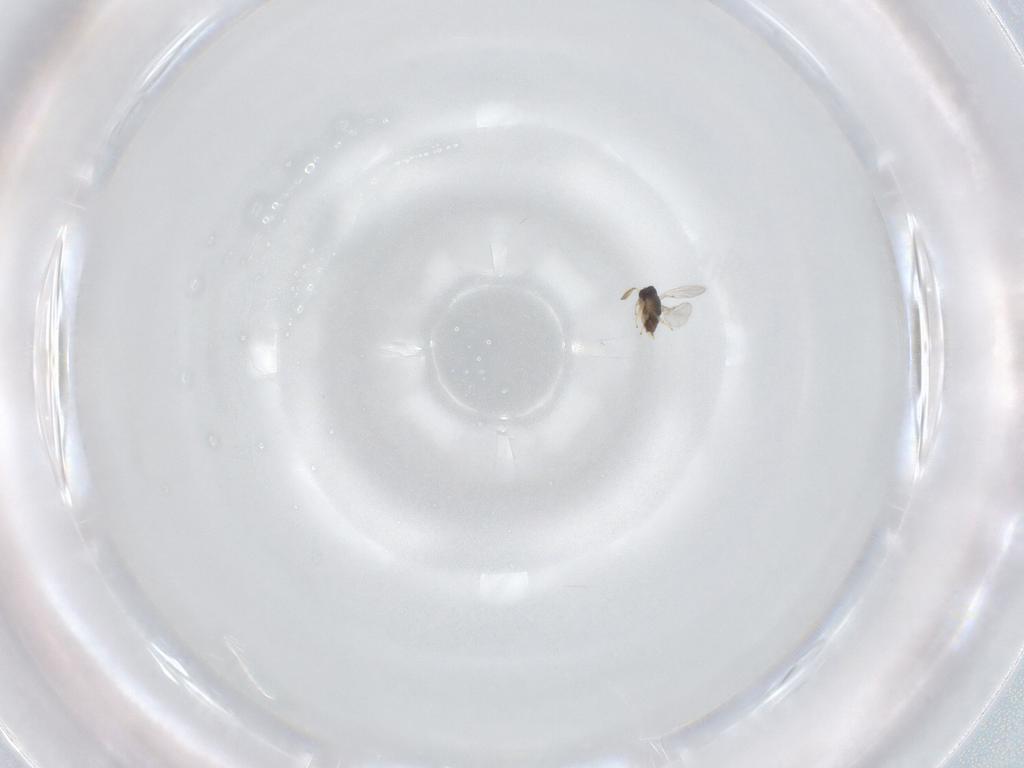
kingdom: Animalia
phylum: Arthropoda
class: Insecta
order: Hymenoptera
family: Encyrtidae
